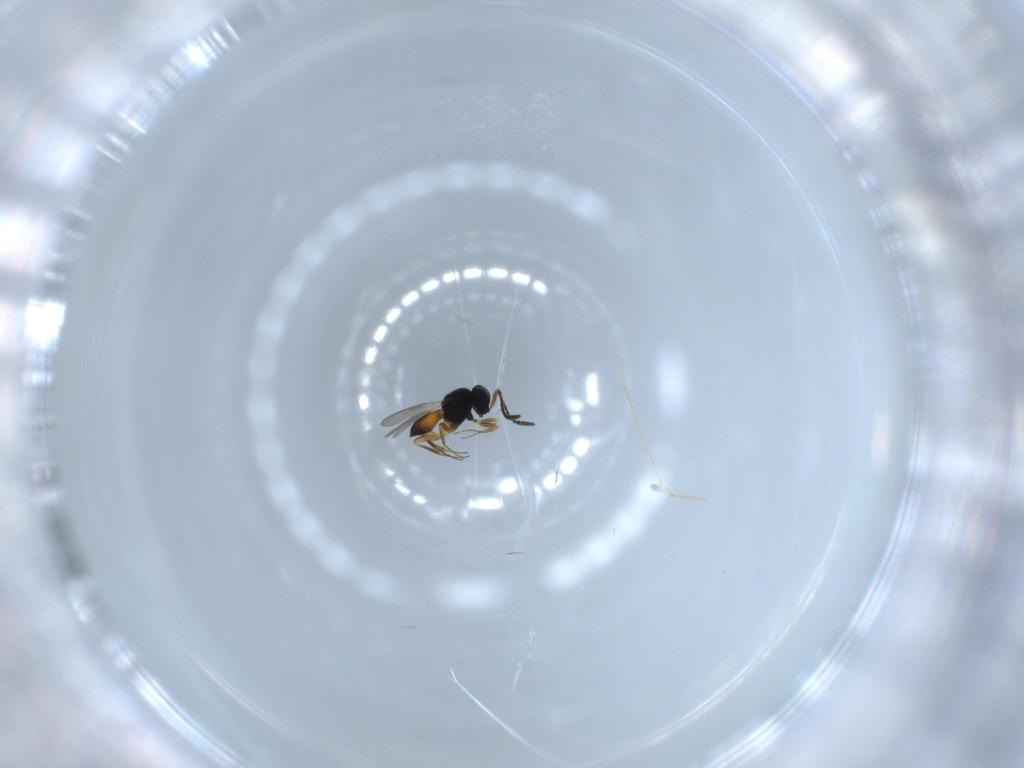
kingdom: Animalia
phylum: Arthropoda
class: Insecta
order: Hymenoptera
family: Scelionidae
